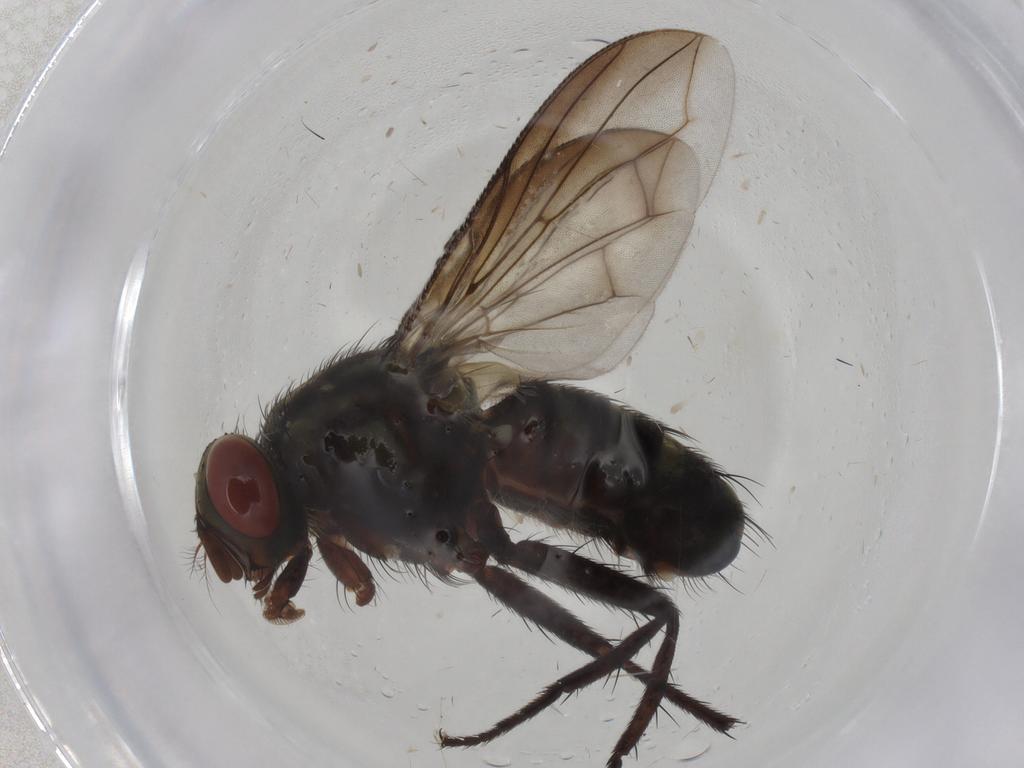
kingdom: Animalia
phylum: Arthropoda
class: Insecta
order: Diptera
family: Sarcophagidae
